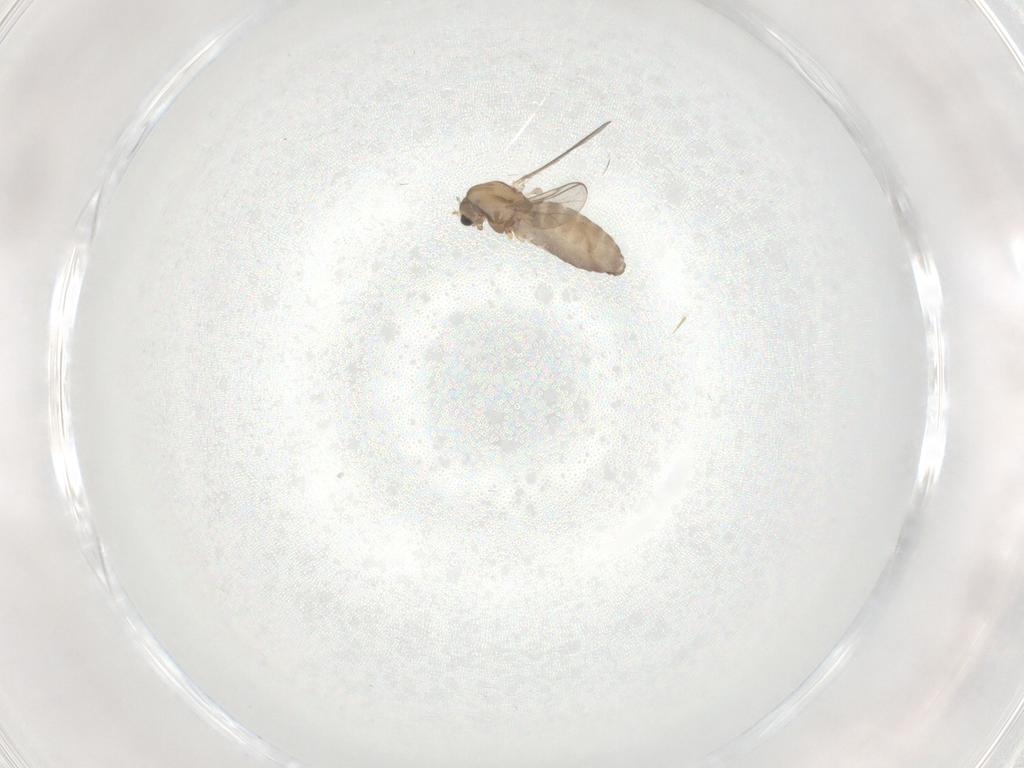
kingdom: Animalia
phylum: Arthropoda
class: Insecta
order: Diptera
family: Chironomidae
